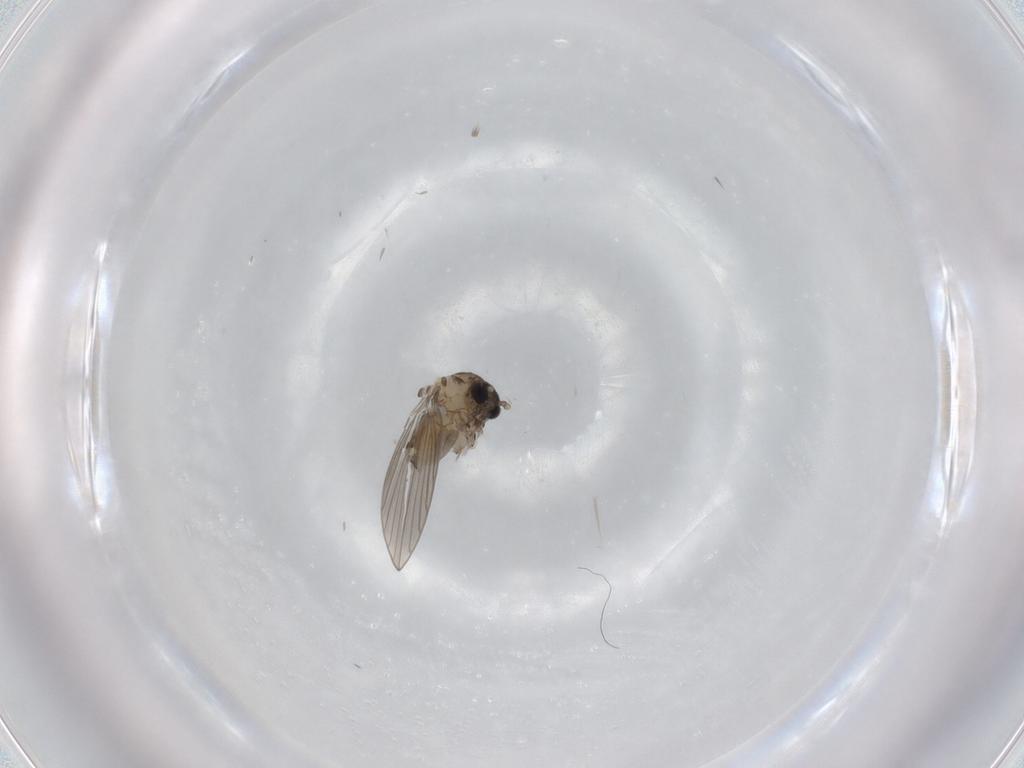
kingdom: Animalia
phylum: Arthropoda
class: Insecta
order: Diptera
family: Psychodidae
